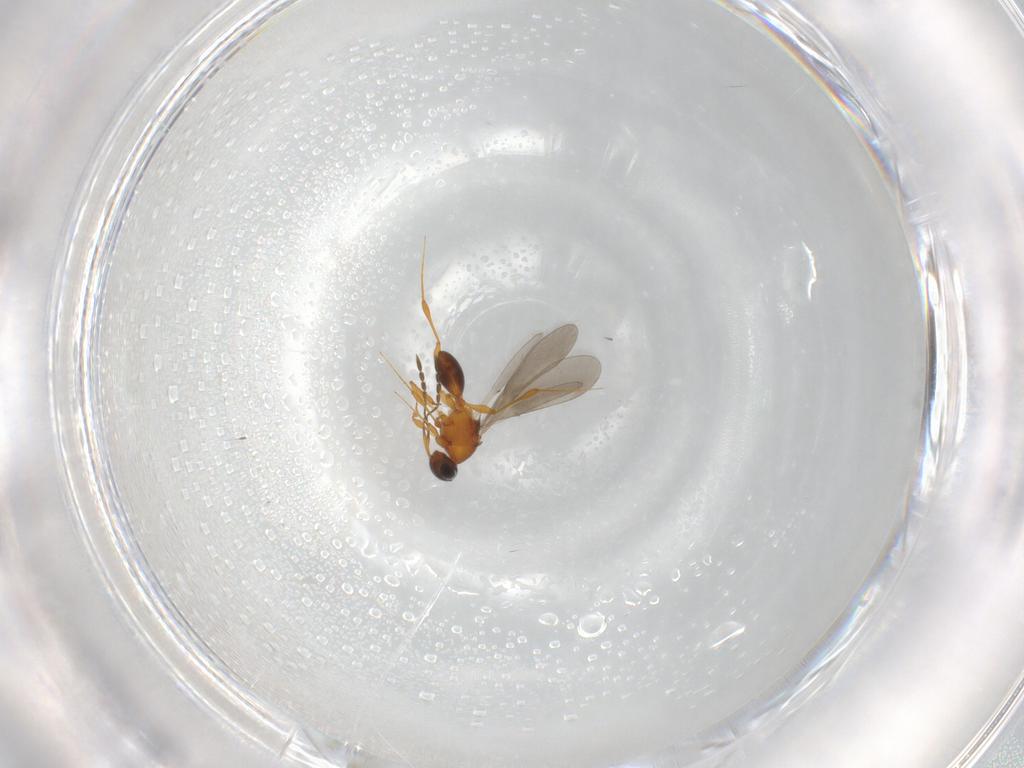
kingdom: Animalia
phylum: Arthropoda
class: Insecta
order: Hymenoptera
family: Platygastridae
